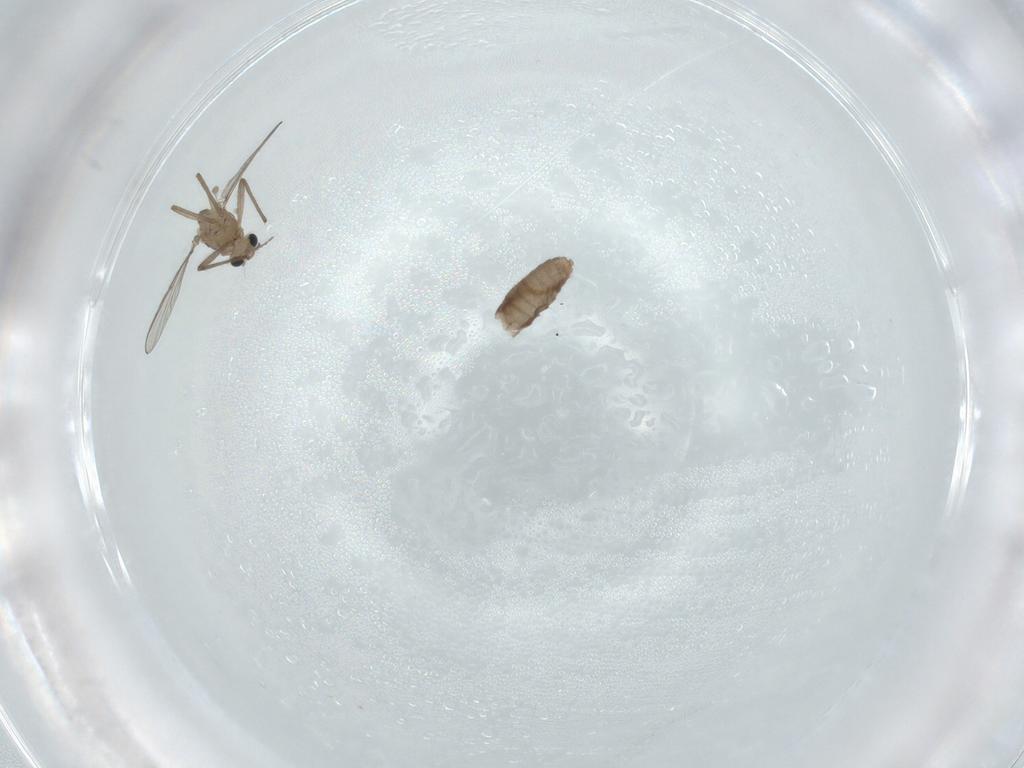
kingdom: Animalia
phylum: Arthropoda
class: Insecta
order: Diptera
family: Chironomidae
